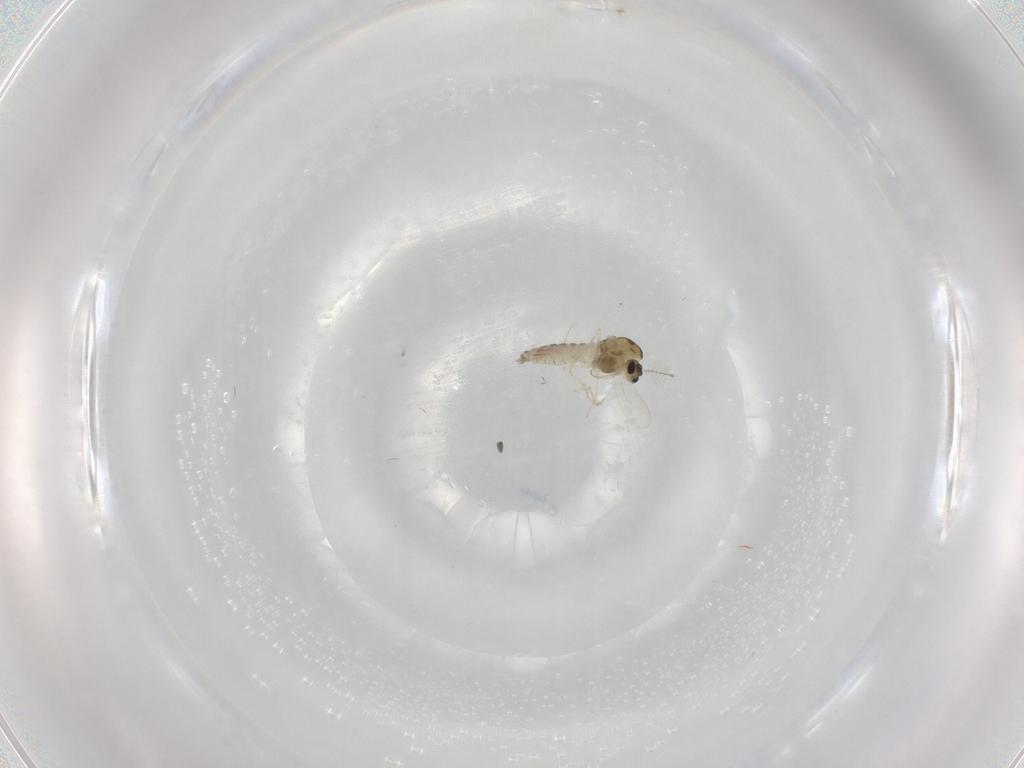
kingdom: Animalia
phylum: Arthropoda
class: Insecta
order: Diptera
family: Chironomidae
